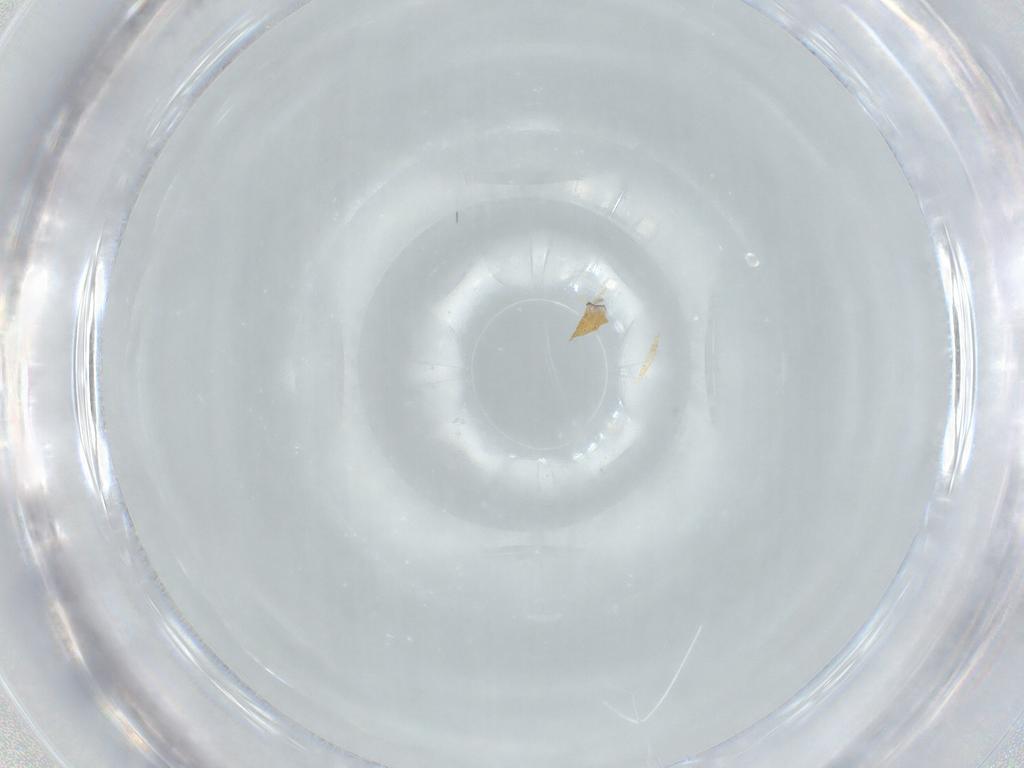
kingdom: Animalia
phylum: Arthropoda
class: Insecta
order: Diptera
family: Phoridae
